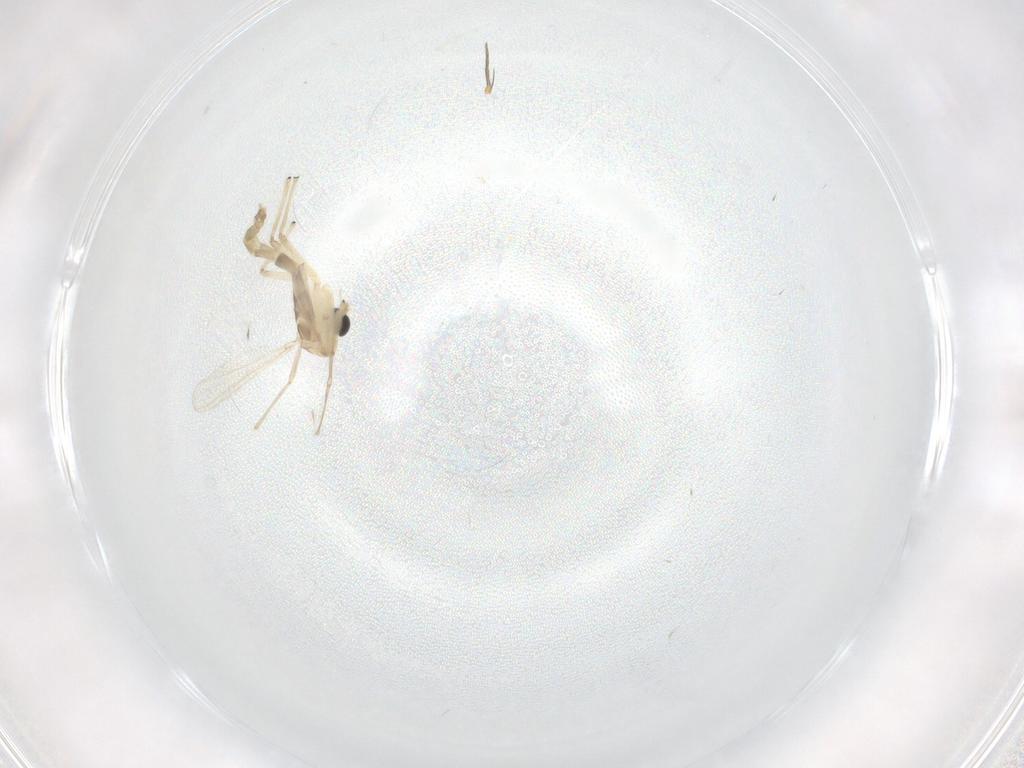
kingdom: Animalia
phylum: Arthropoda
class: Insecta
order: Diptera
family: Chironomidae
